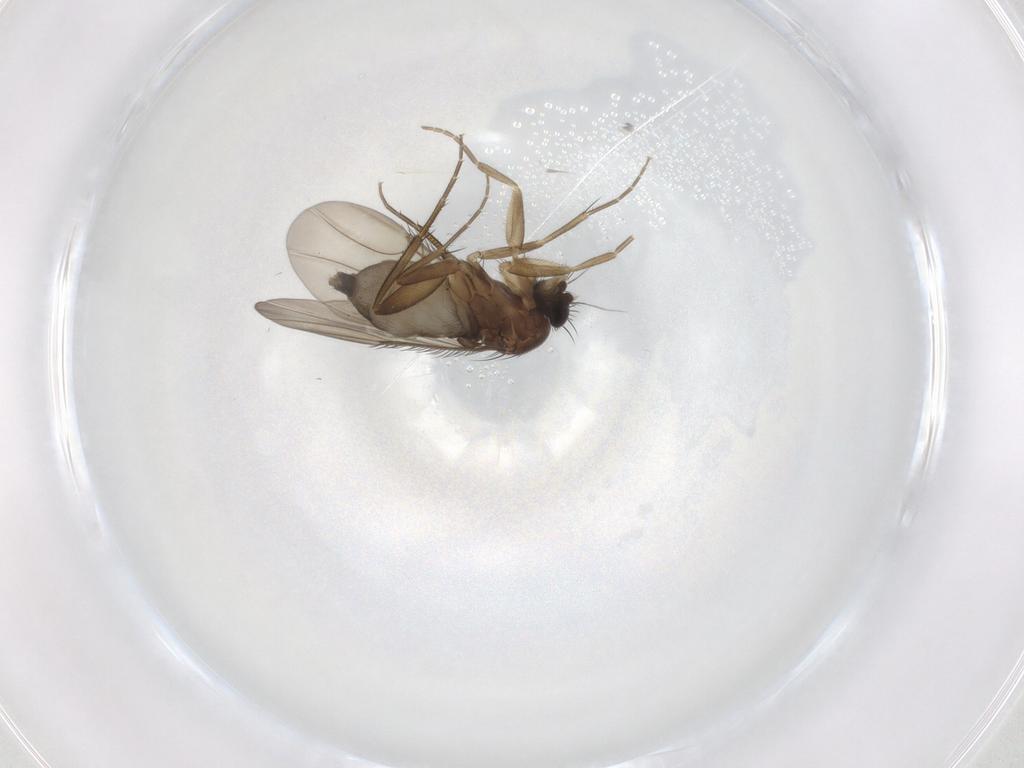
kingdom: Animalia
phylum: Arthropoda
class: Insecta
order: Diptera
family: Phoridae
